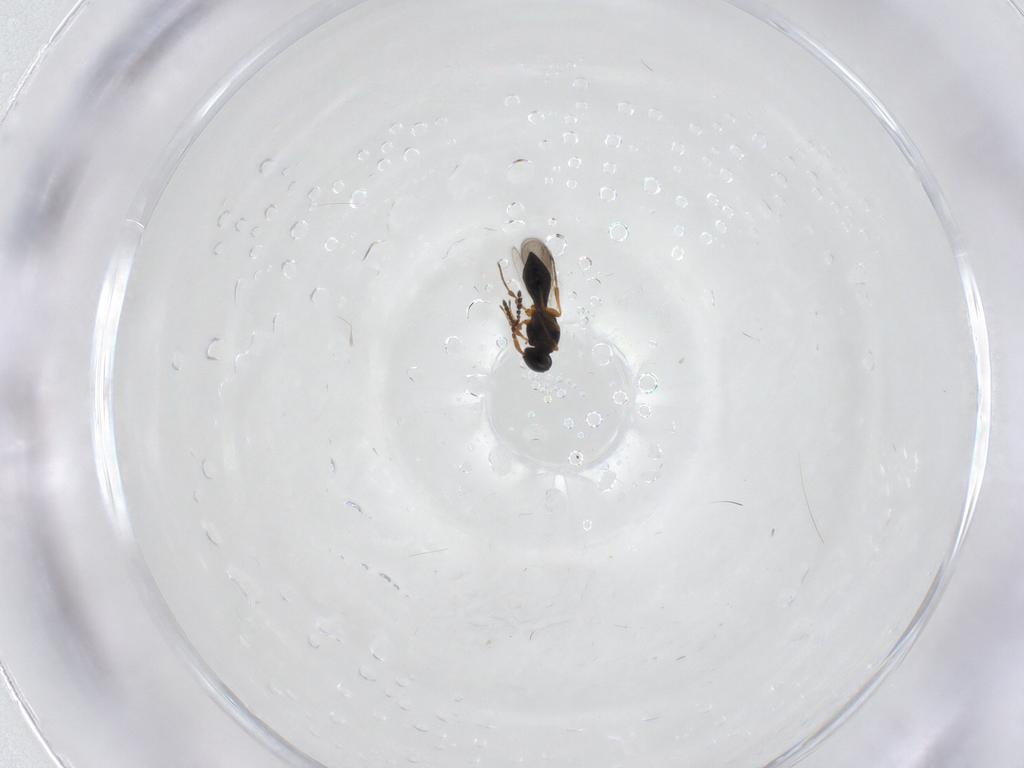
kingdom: Animalia
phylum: Arthropoda
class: Insecta
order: Hymenoptera
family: Platygastridae
